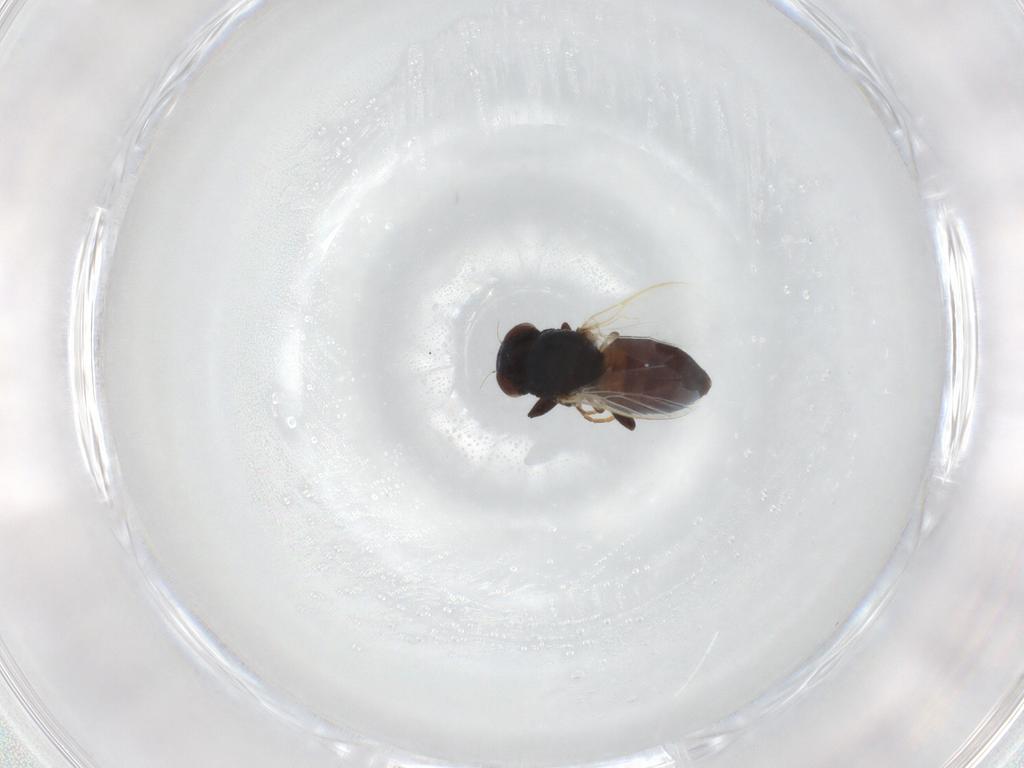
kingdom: Animalia
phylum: Arthropoda
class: Insecta
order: Diptera
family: Chloropidae
